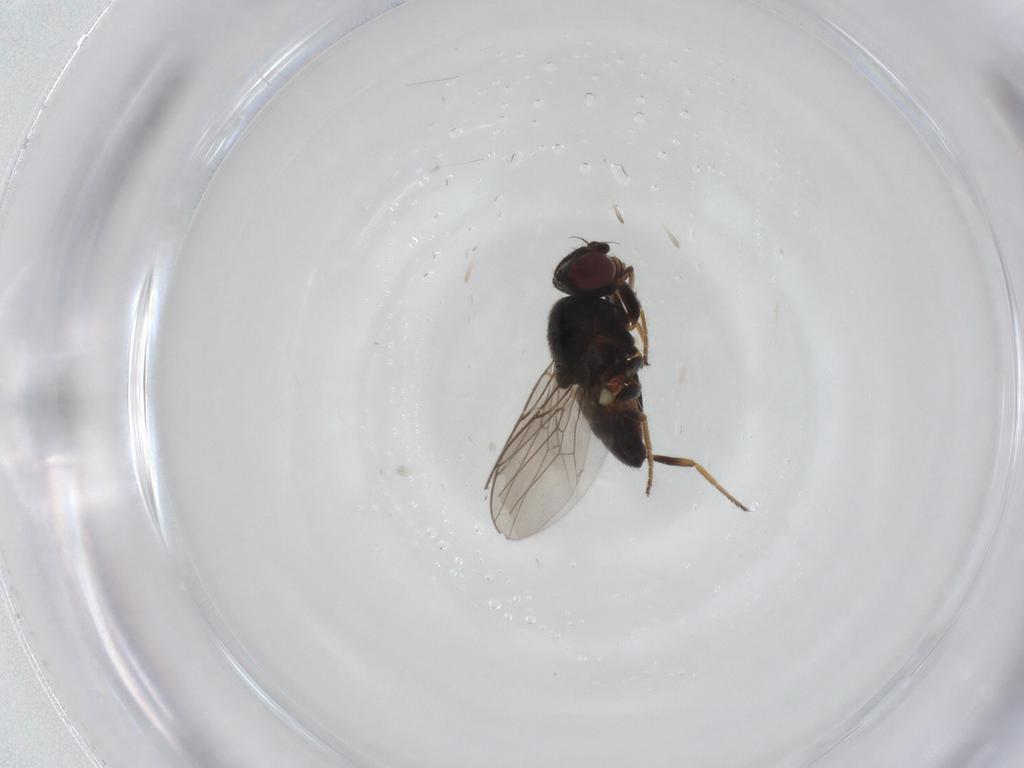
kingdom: Animalia
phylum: Arthropoda
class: Insecta
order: Diptera
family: Chloropidae
